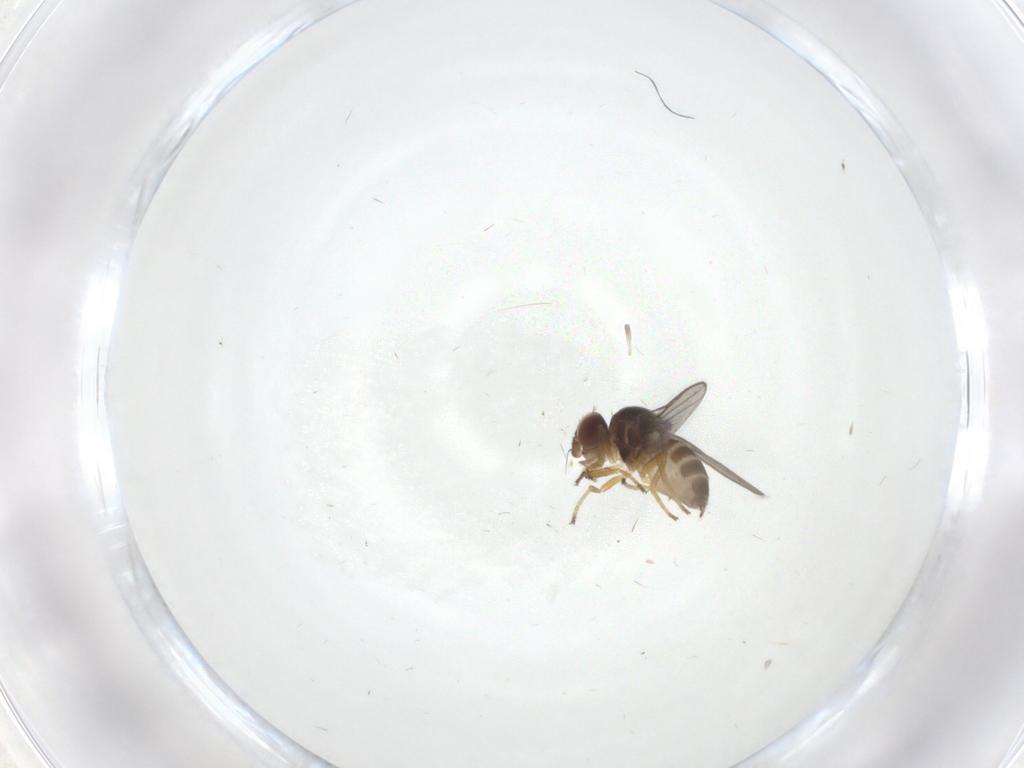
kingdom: Animalia
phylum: Arthropoda
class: Insecta
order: Diptera
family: Chloropidae
